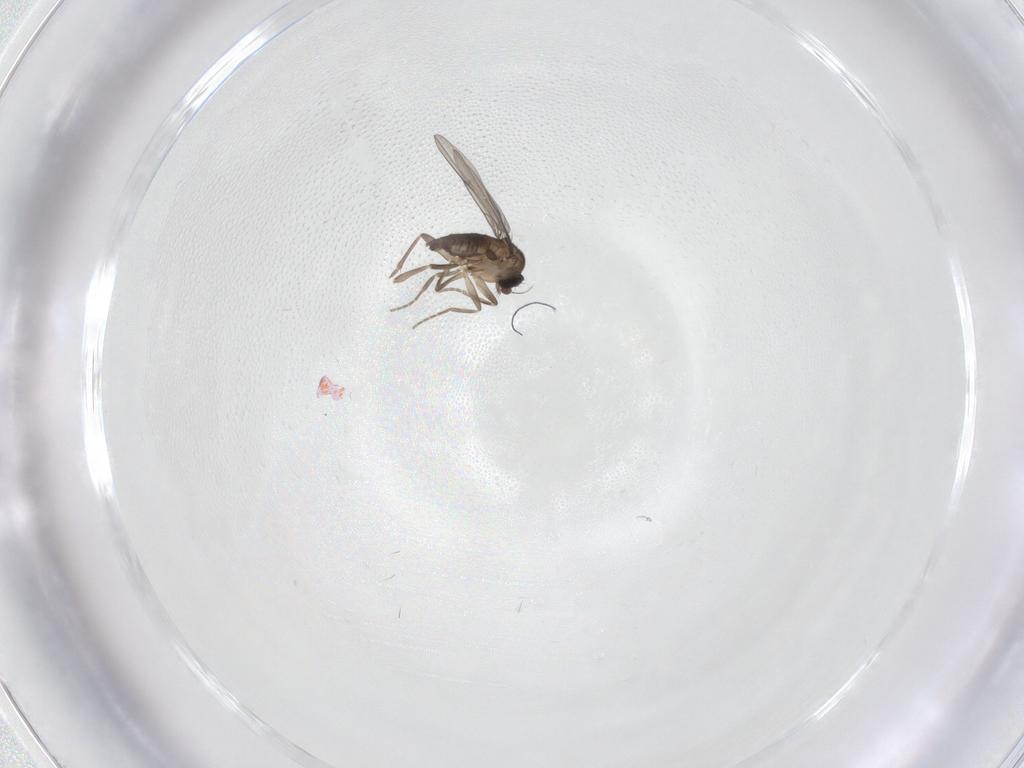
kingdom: Animalia
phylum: Arthropoda
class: Insecta
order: Diptera
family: Phoridae
